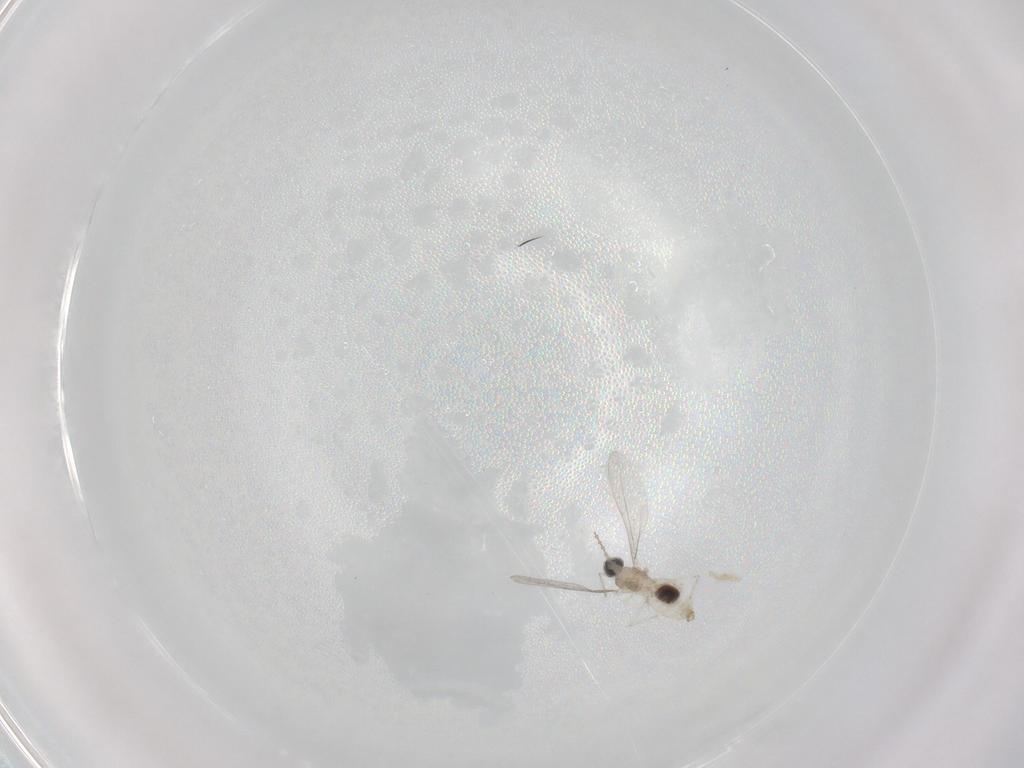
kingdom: Animalia
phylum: Arthropoda
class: Insecta
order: Diptera
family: Cecidomyiidae
